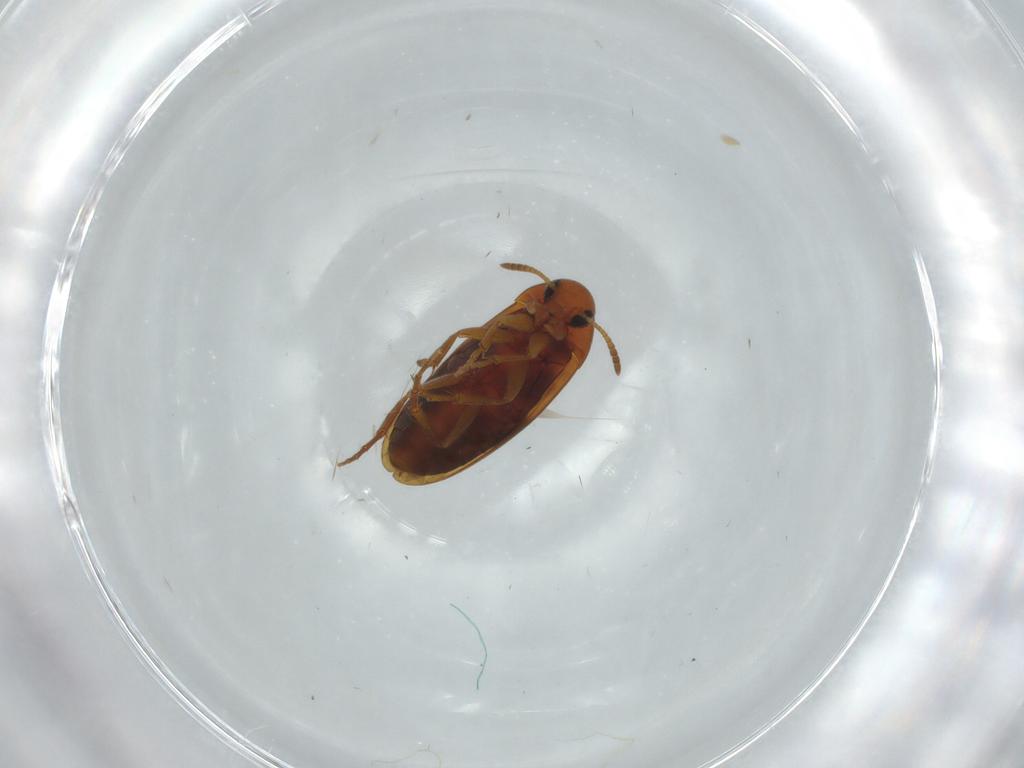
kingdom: Animalia
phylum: Arthropoda
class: Insecta
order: Coleoptera
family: Scraptiidae
